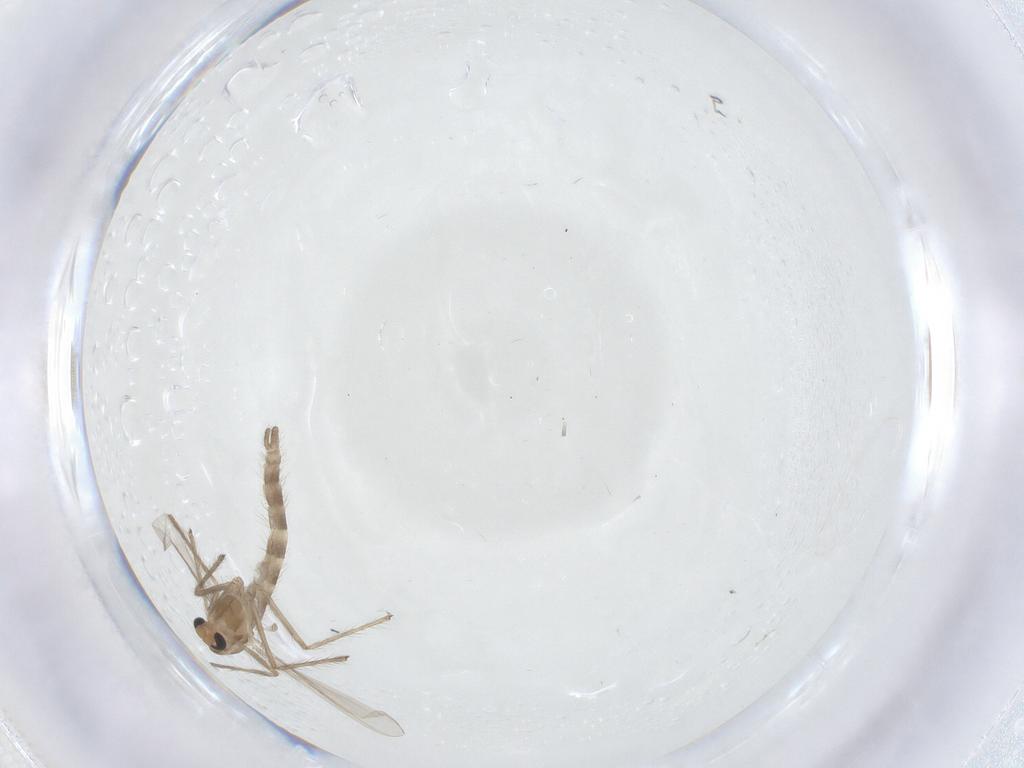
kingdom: Animalia
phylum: Arthropoda
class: Insecta
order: Diptera
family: Chironomidae
